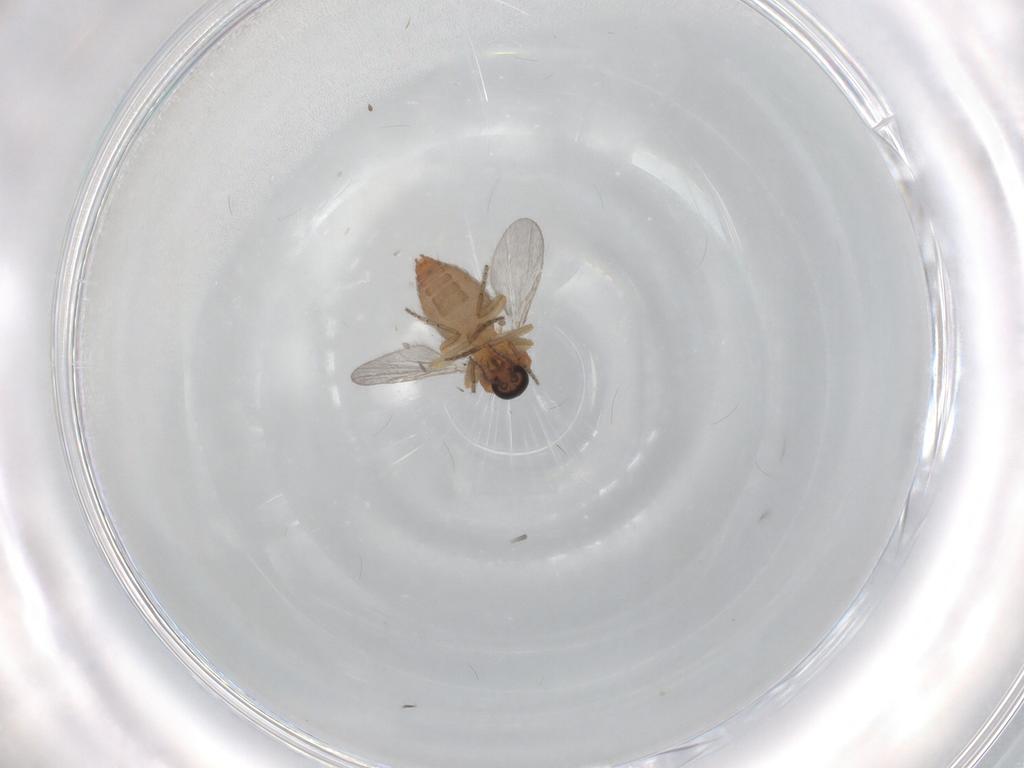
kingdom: Animalia
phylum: Arthropoda
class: Insecta
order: Diptera
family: Ceratopogonidae
